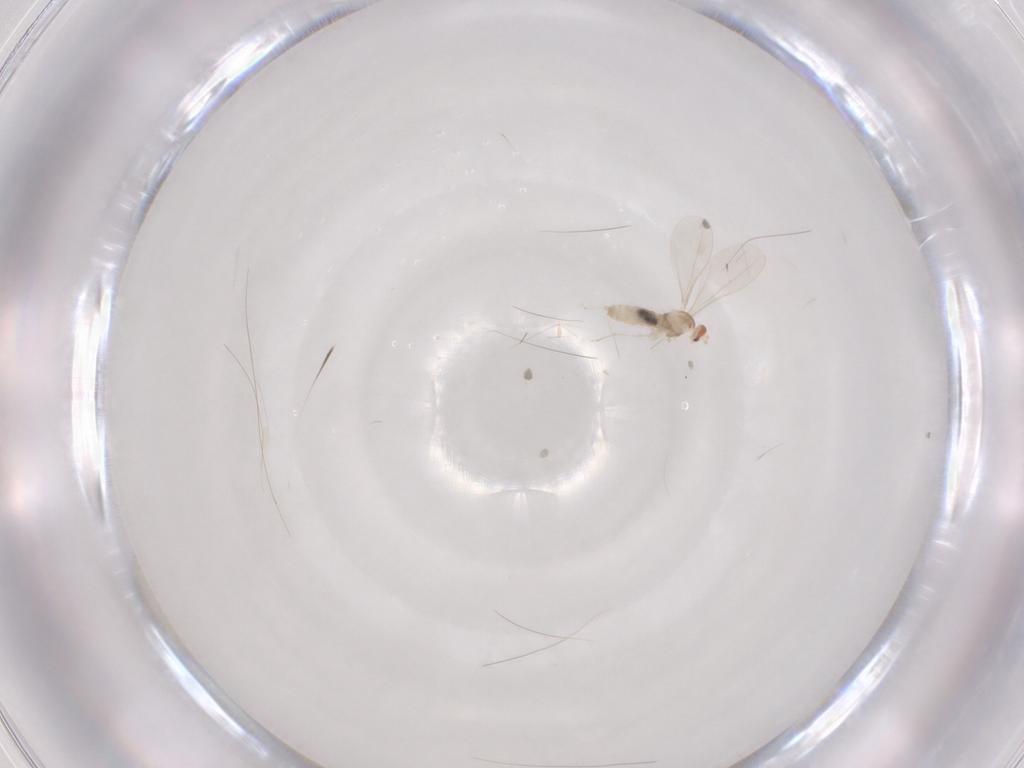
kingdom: Animalia
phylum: Arthropoda
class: Insecta
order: Diptera
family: Cecidomyiidae
